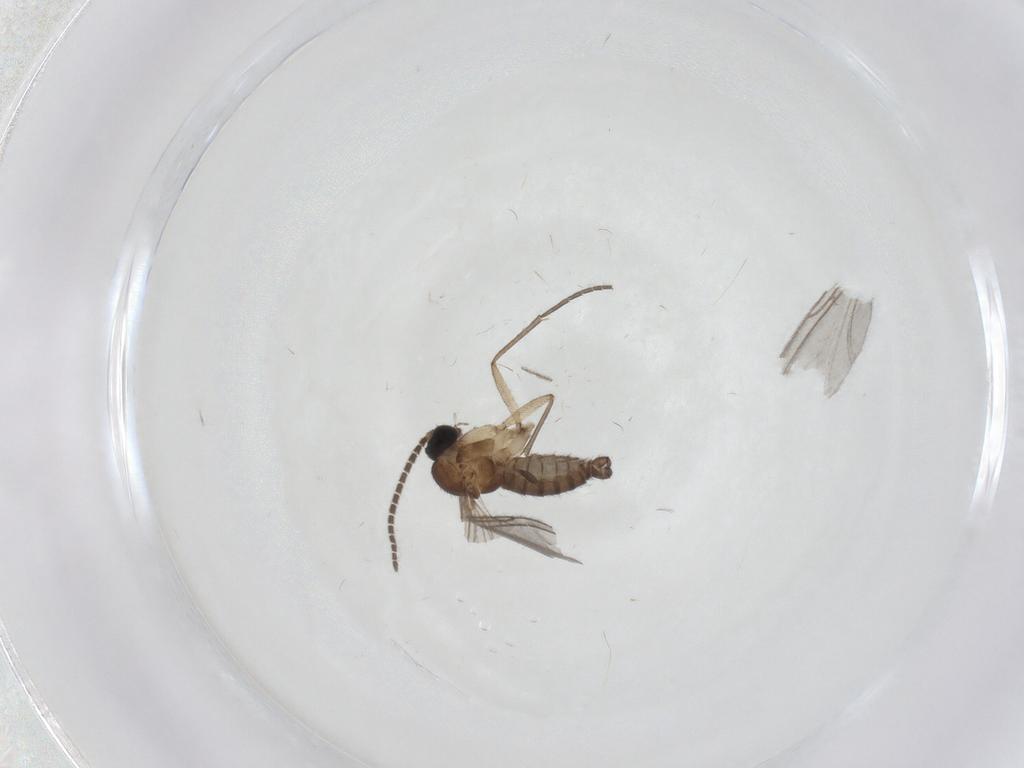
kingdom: Animalia
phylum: Arthropoda
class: Insecta
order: Diptera
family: Sciaridae
